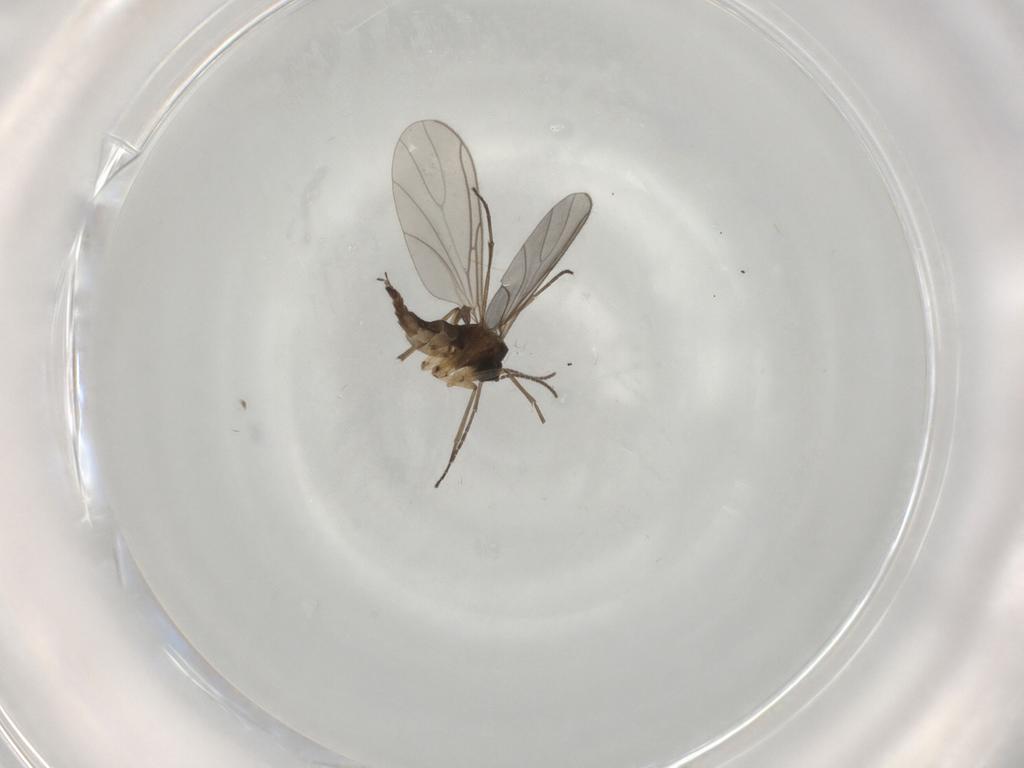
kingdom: Animalia
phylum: Arthropoda
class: Insecta
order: Diptera
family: Sciaridae
